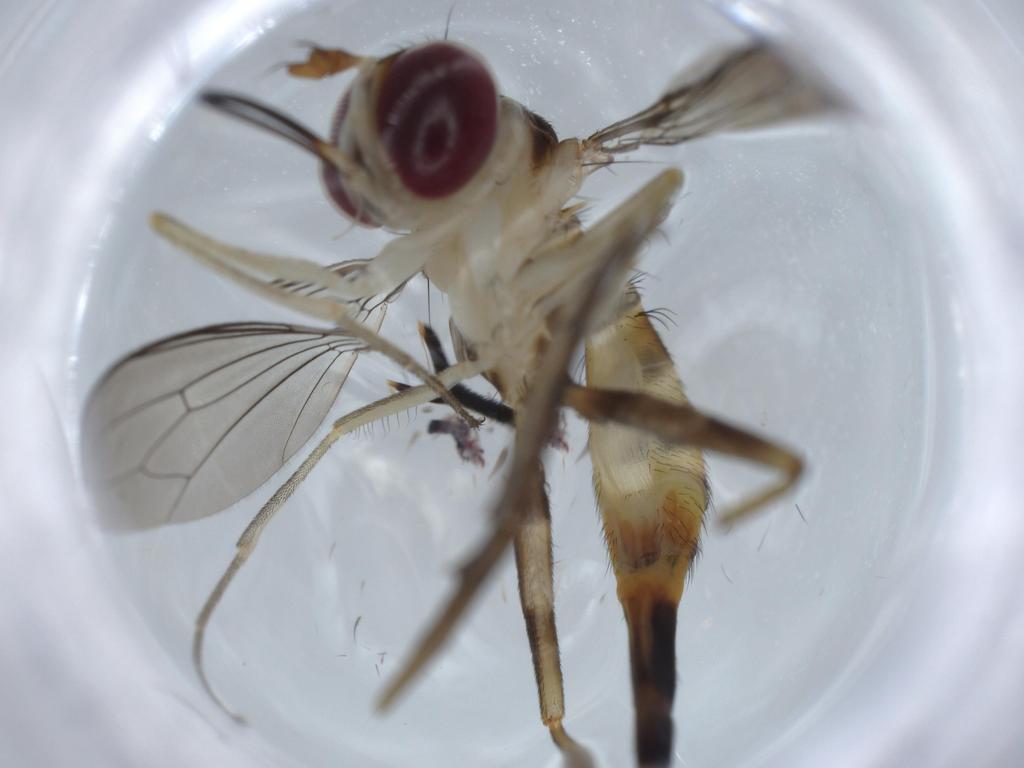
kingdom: Animalia
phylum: Arthropoda
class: Insecta
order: Diptera
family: Conopidae
